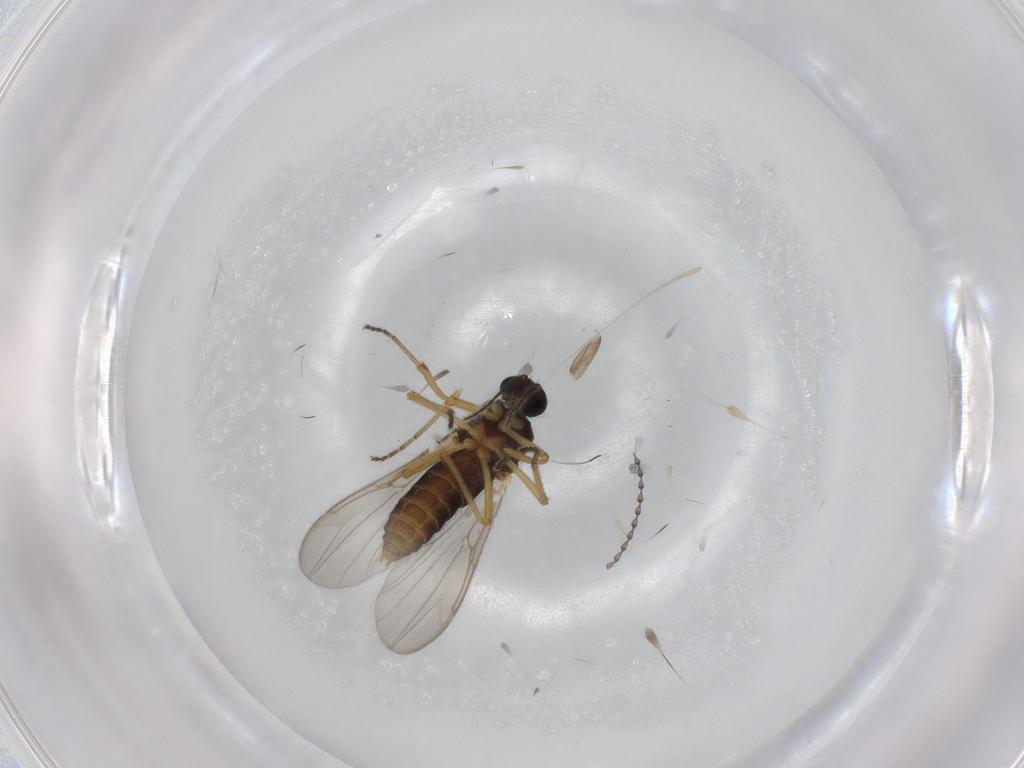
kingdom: Animalia
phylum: Arthropoda
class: Insecta
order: Diptera
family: Ceratopogonidae
